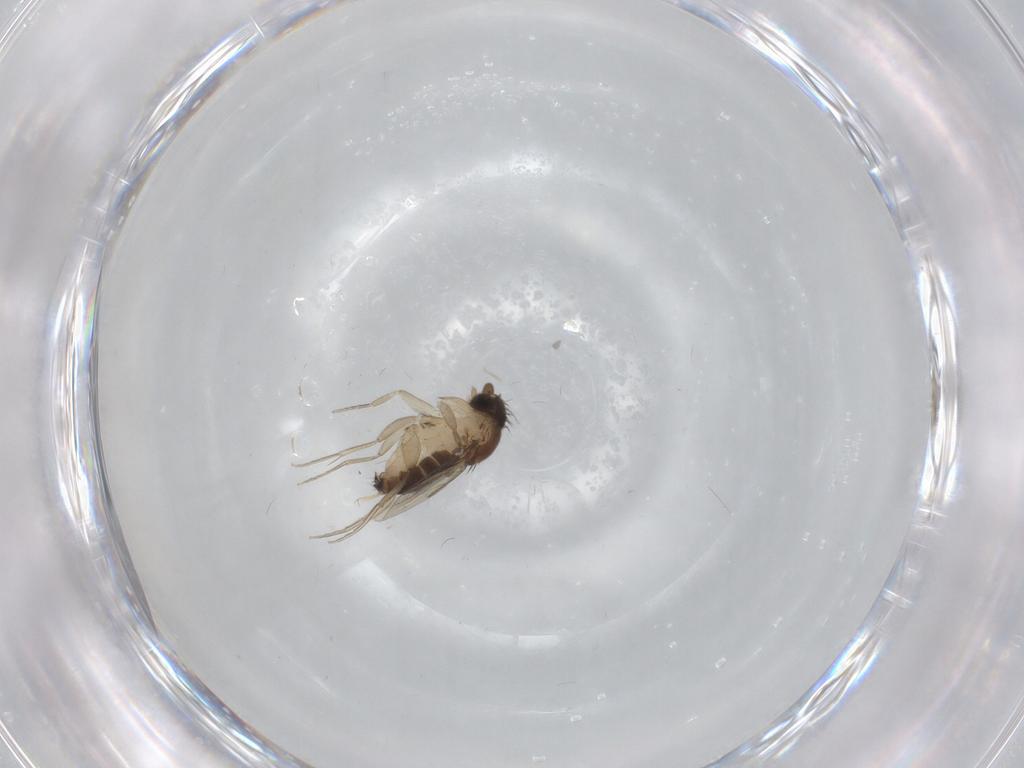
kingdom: Animalia
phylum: Arthropoda
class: Insecta
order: Diptera
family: Phoridae
